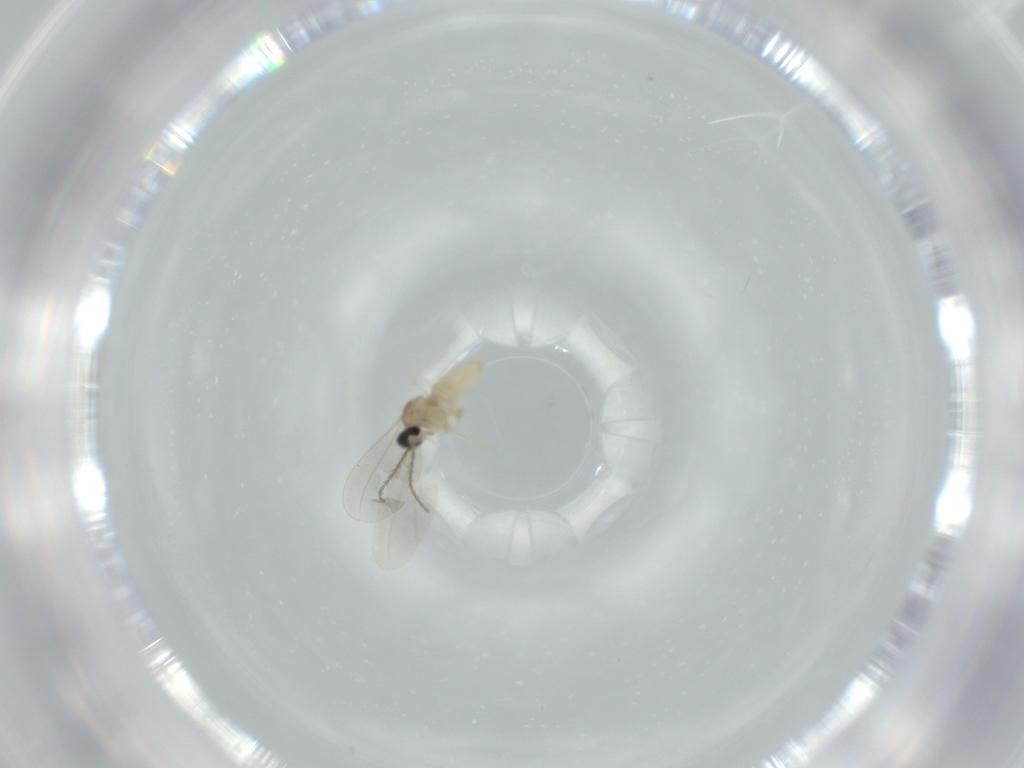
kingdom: Animalia
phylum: Arthropoda
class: Insecta
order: Diptera
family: Cecidomyiidae
